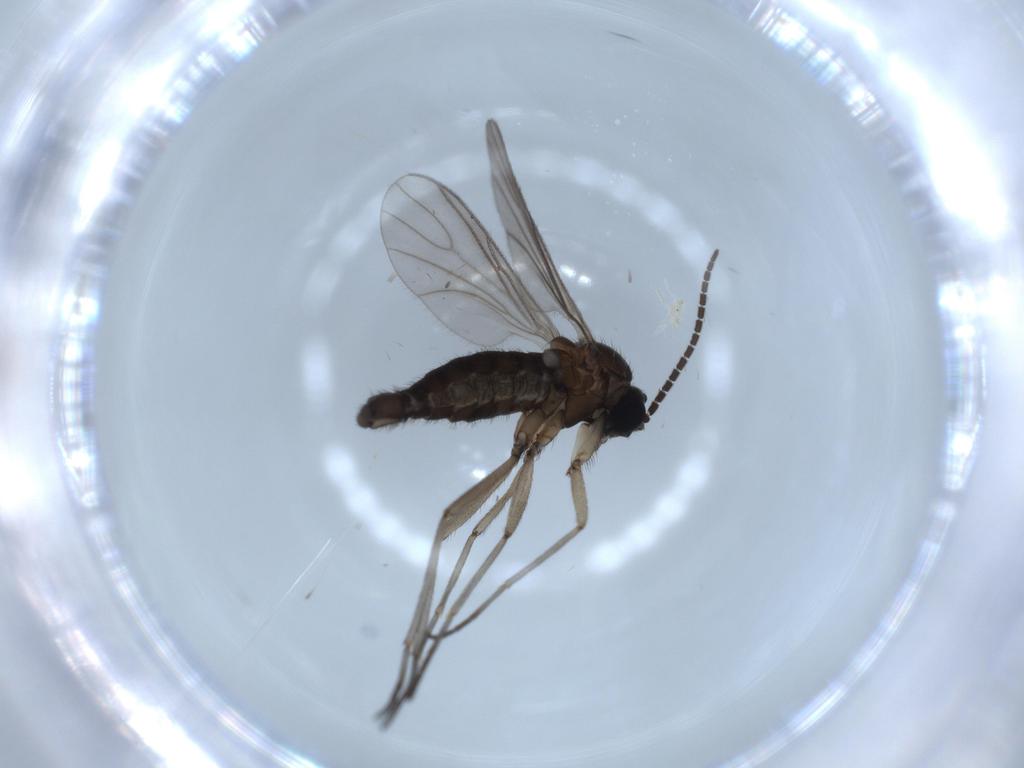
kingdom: Animalia
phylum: Arthropoda
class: Insecta
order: Diptera
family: Sciaridae
